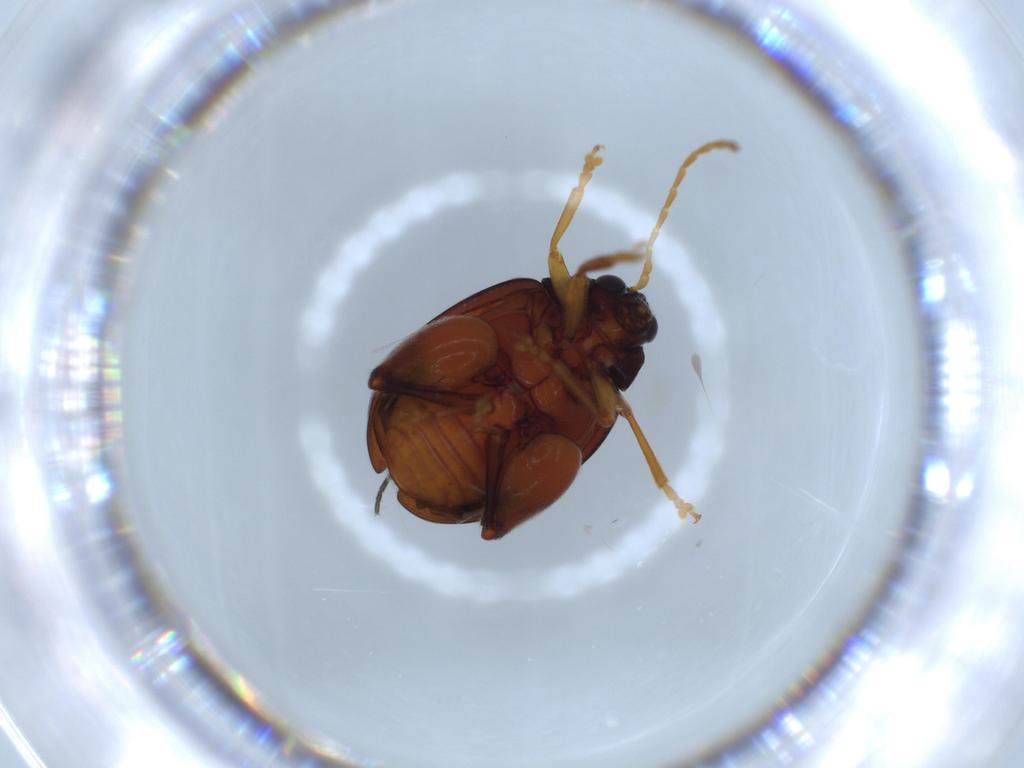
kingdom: Animalia
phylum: Arthropoda
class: Insecta
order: Coleoptera
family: Chrysomelidae
